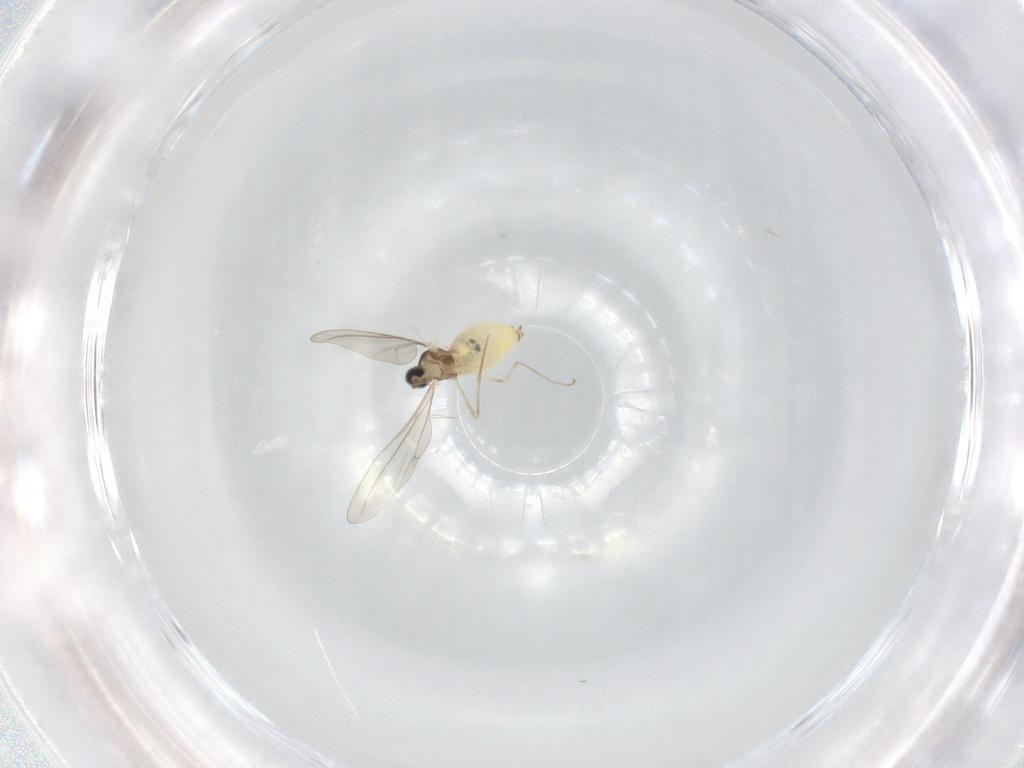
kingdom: Animalia
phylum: Arthropoda
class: Insecta
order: Diptera
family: Cecidomyiidae
